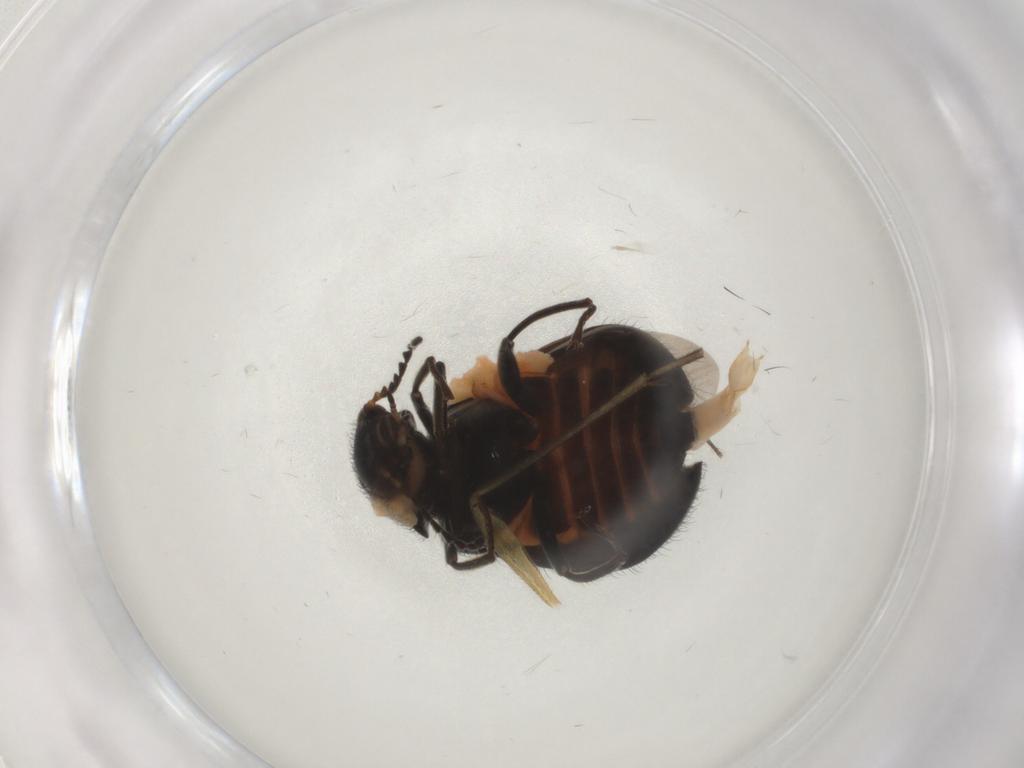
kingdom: Animalia
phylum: Arthropoda
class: Insecta
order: Coleoptera
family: Melyridae
